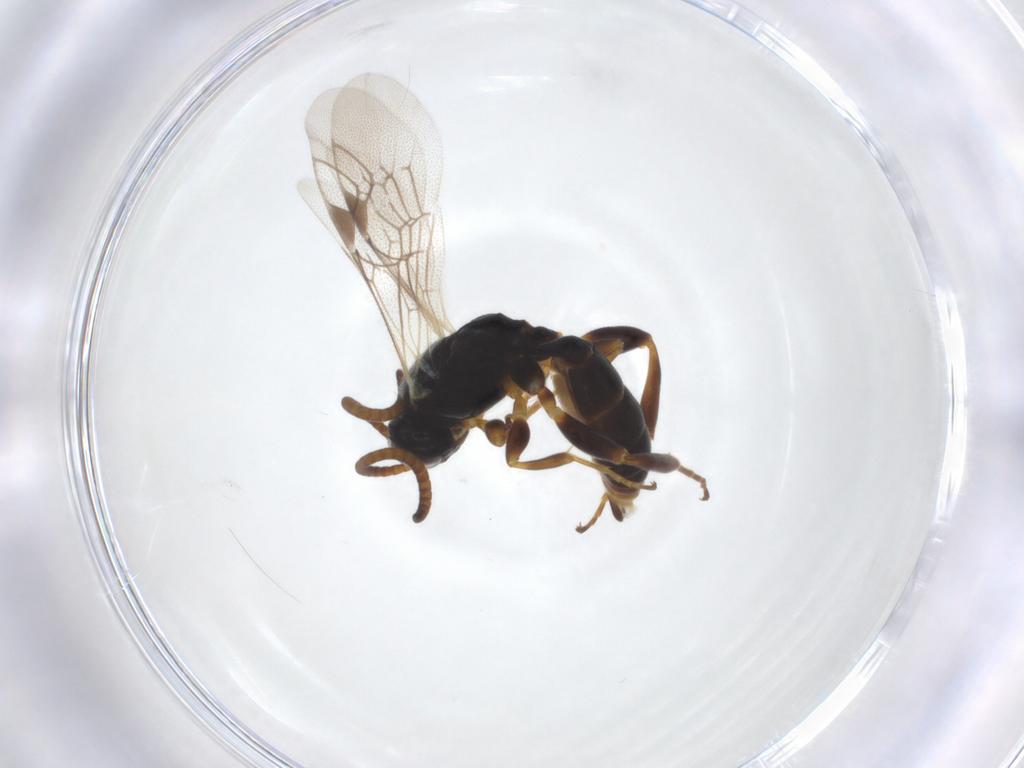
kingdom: Animalia
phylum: Arthropoda
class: Insecta
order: Hymenoptera
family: Ichneumonidae
